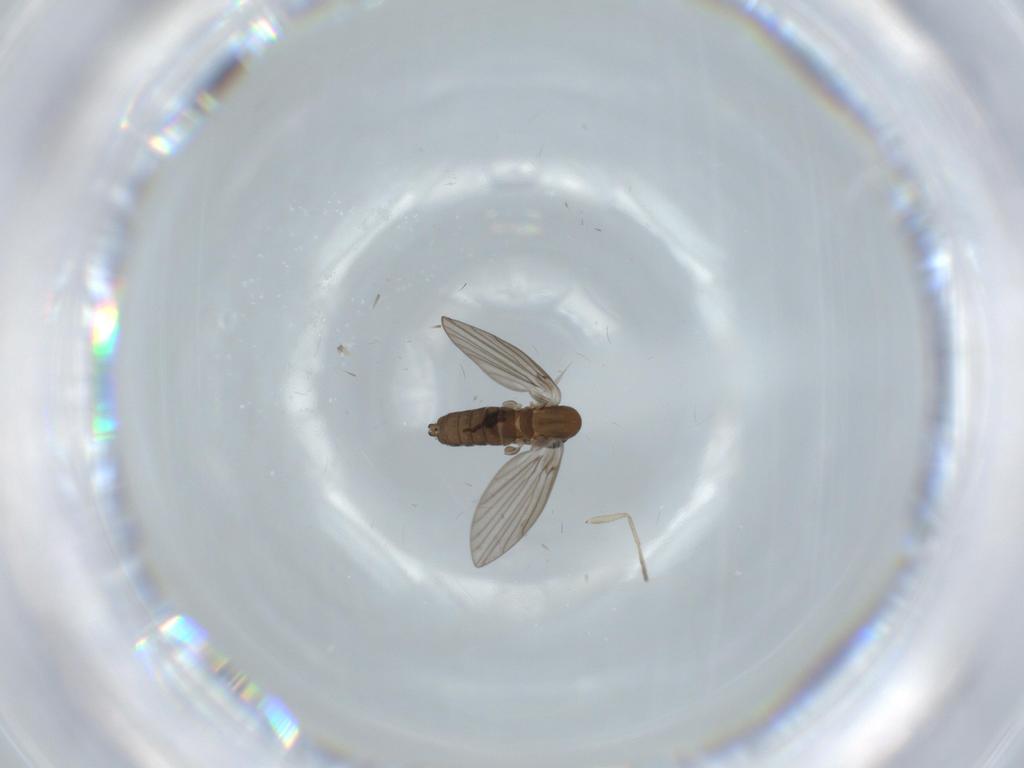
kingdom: Animalia
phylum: Arthropoda
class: Insecta
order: Diptera
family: Psychodidae
